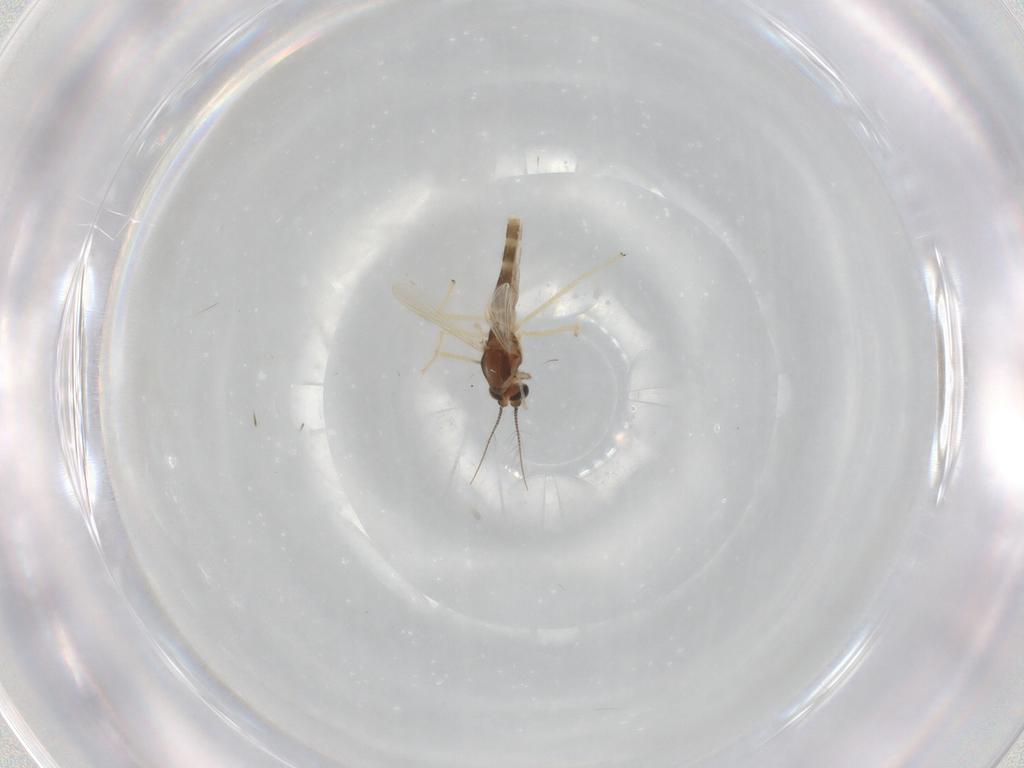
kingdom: Animalia
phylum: Arthropoda
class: Insecta
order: Diptera
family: Chironomidae
